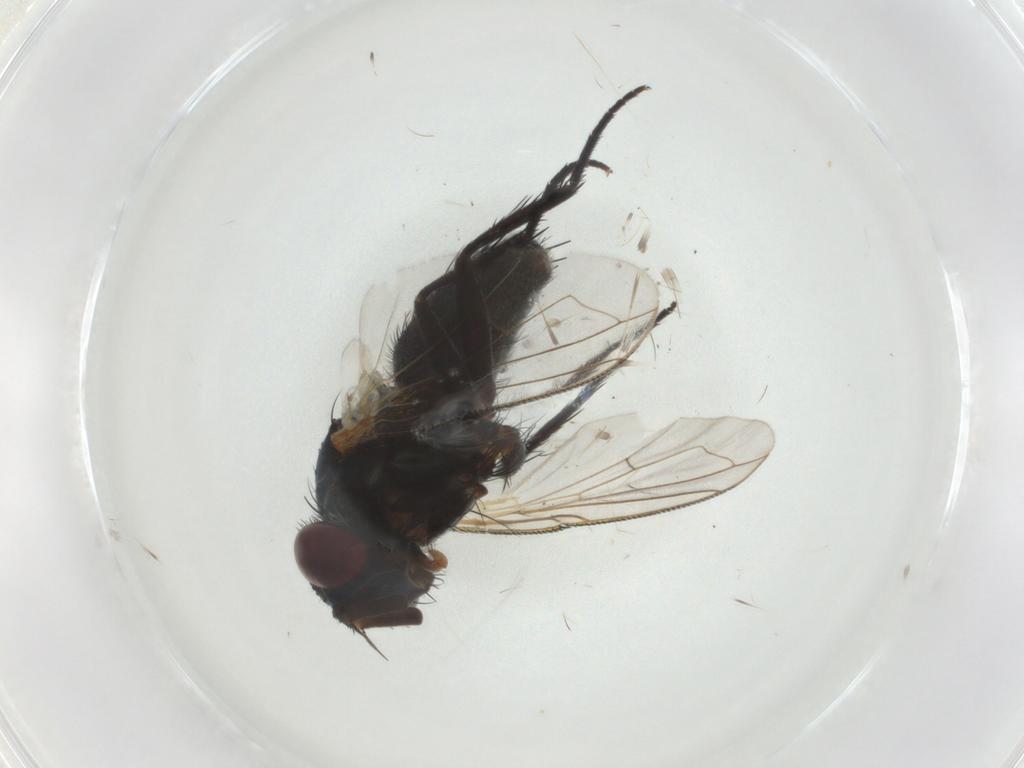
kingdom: Animalia
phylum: Arthropoda
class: Insecta
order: Diptera
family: Tachinidae
